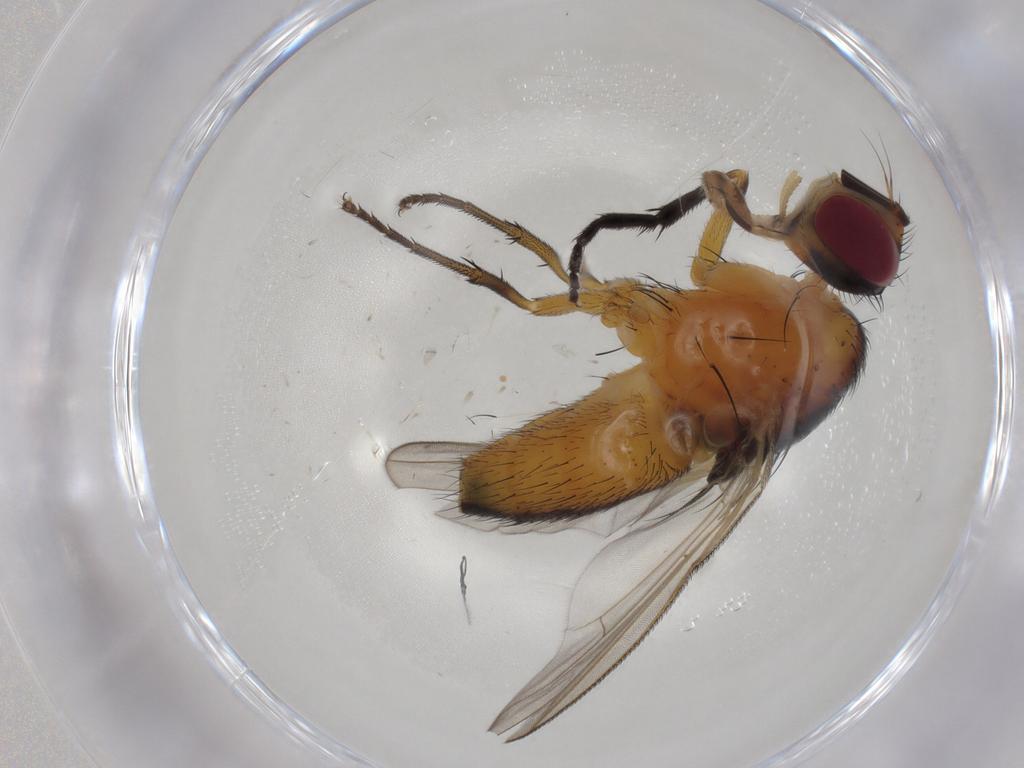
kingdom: Animalia
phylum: Arthropoda
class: Insecta
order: Diptera
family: Muscidae
